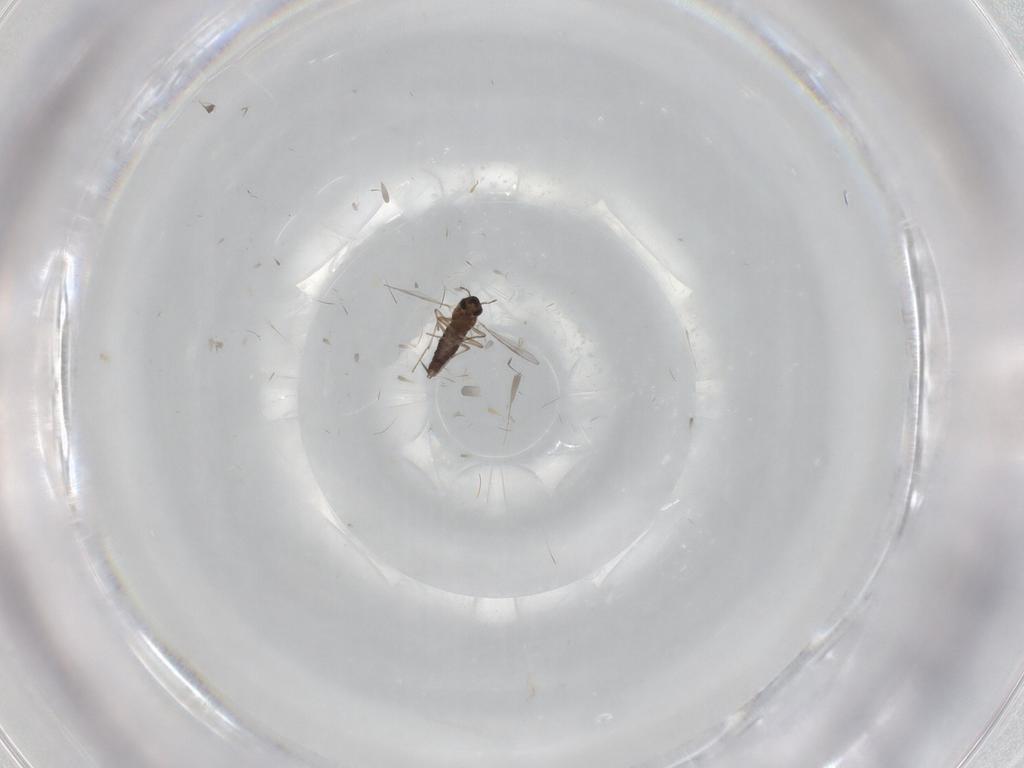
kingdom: Animalia
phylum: Arthropoda
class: Insecta
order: Diptera
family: Chironomidae
